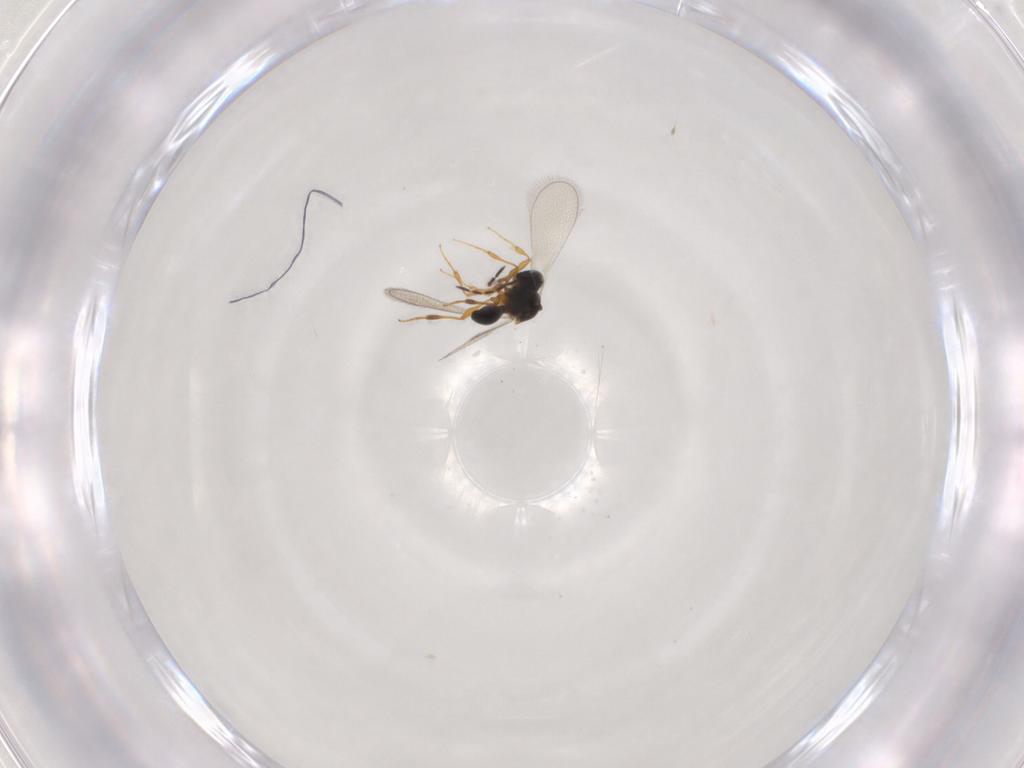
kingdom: Animalia
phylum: Arthropoda
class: Insecta
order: Hymenoptera
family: Platygastridae
